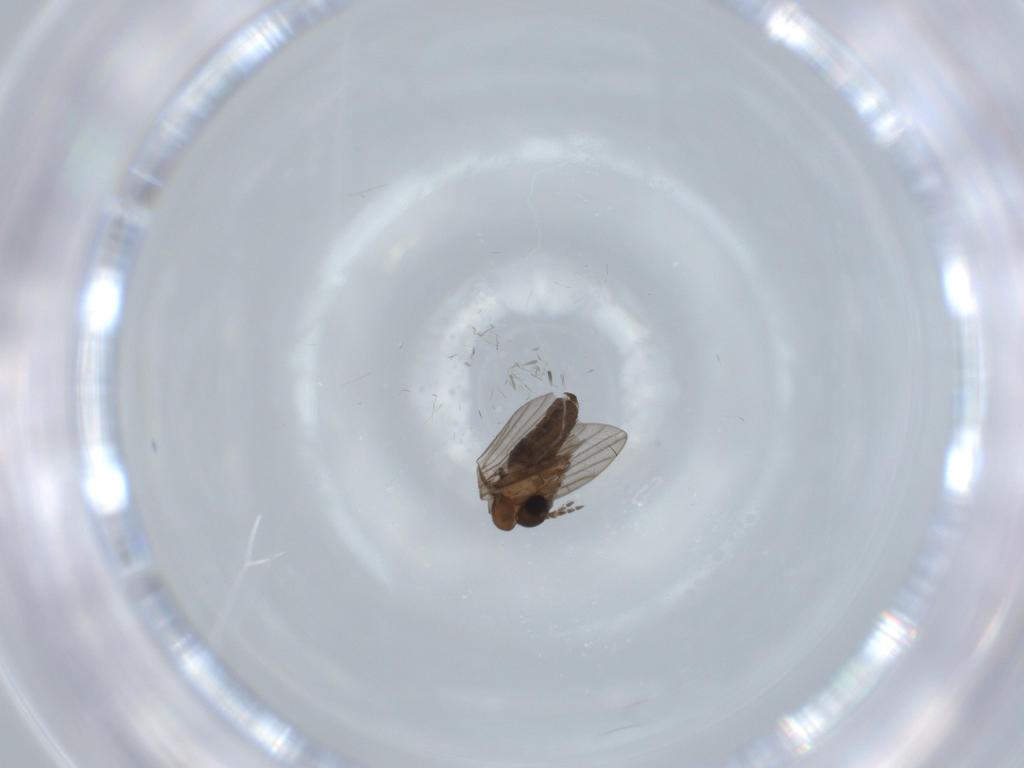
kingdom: Animalia
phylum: Arthropoda
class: Insecta
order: Diptera
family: Psychodidae
